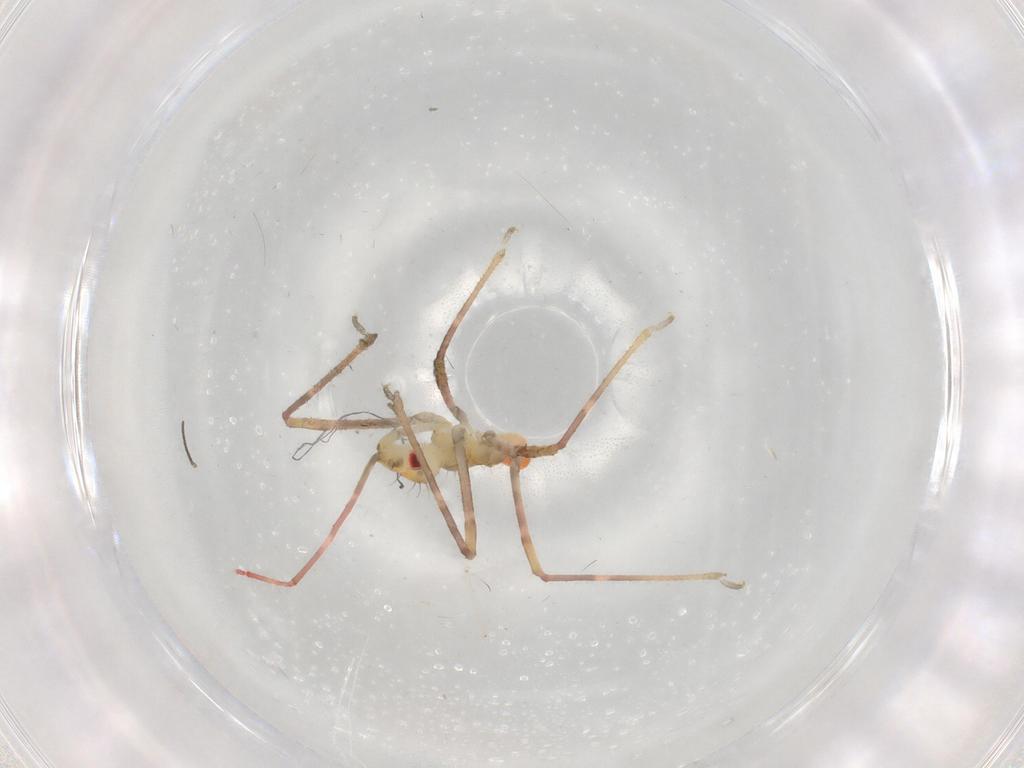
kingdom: Animalia
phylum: Arthropoda
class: Insecta
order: Hemiptera
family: Reduviidae
